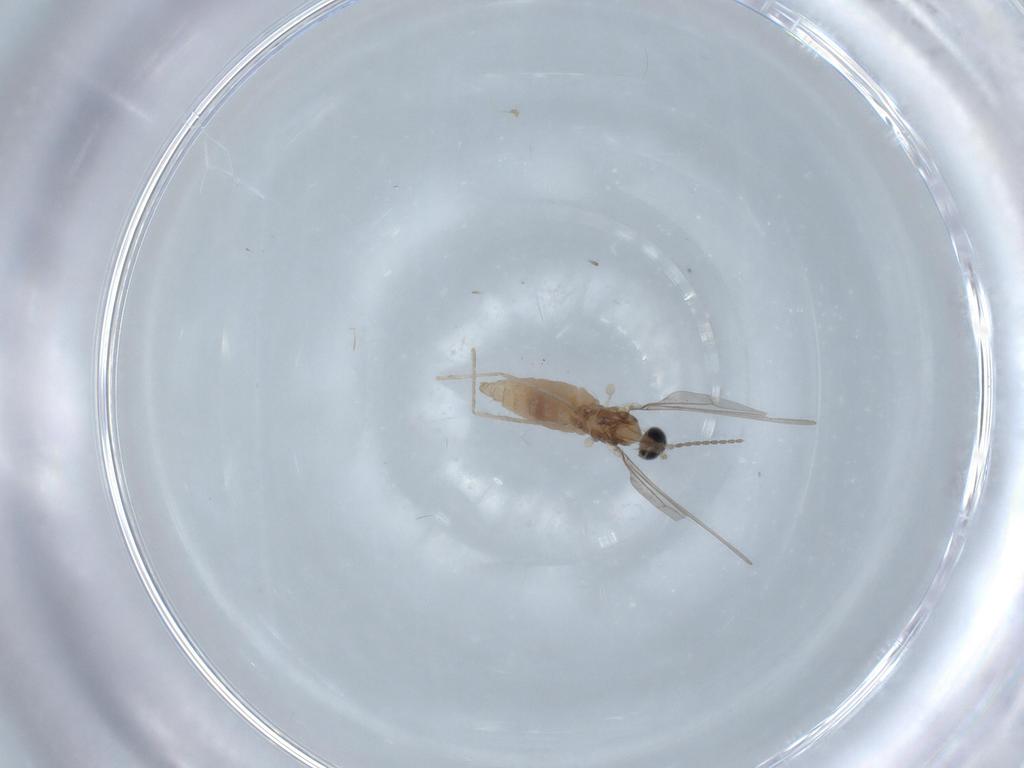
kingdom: Animalia
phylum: Arthropoda
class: Insecta
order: Diptera
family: Cecidomyiidae
